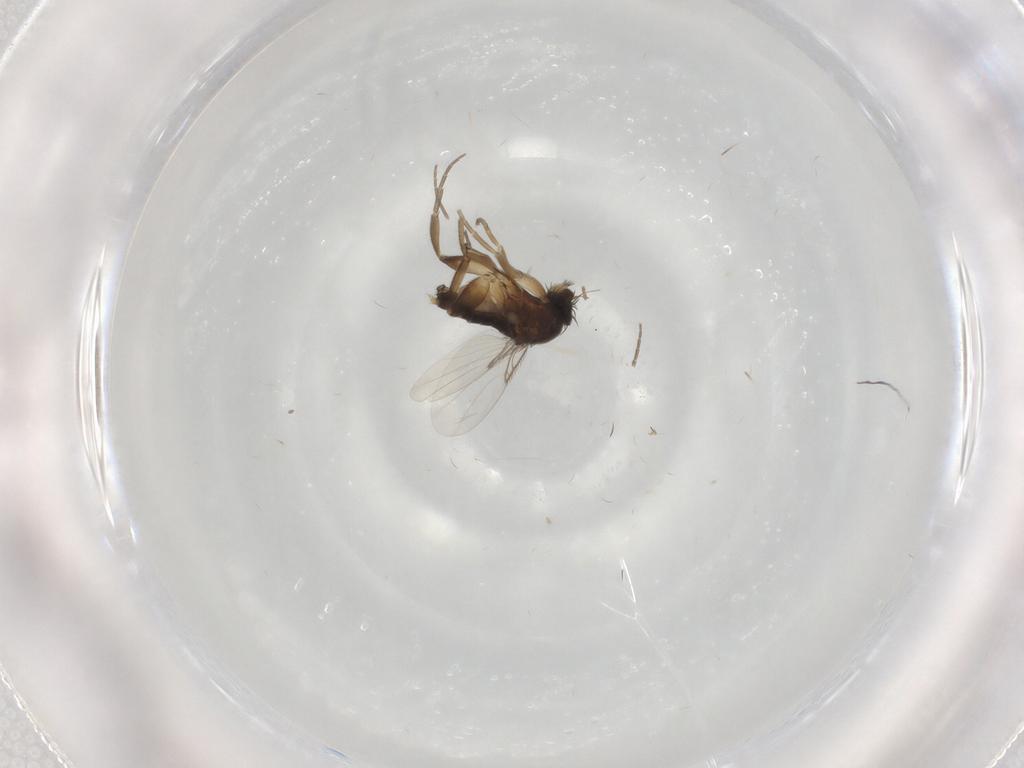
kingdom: Animalia
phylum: Arthropoda
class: Insecta
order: Diptera
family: Phoridae
